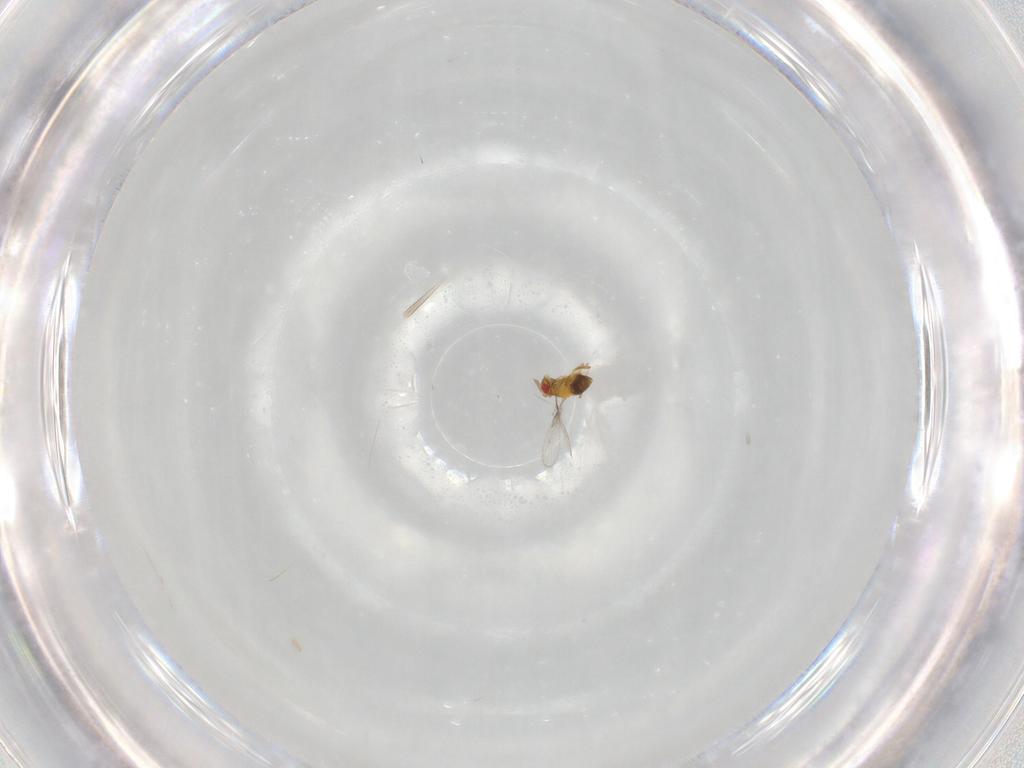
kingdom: Animalia
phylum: Arthropoda
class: Insecta
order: Hymenoptera
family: Trichogrammatidae
